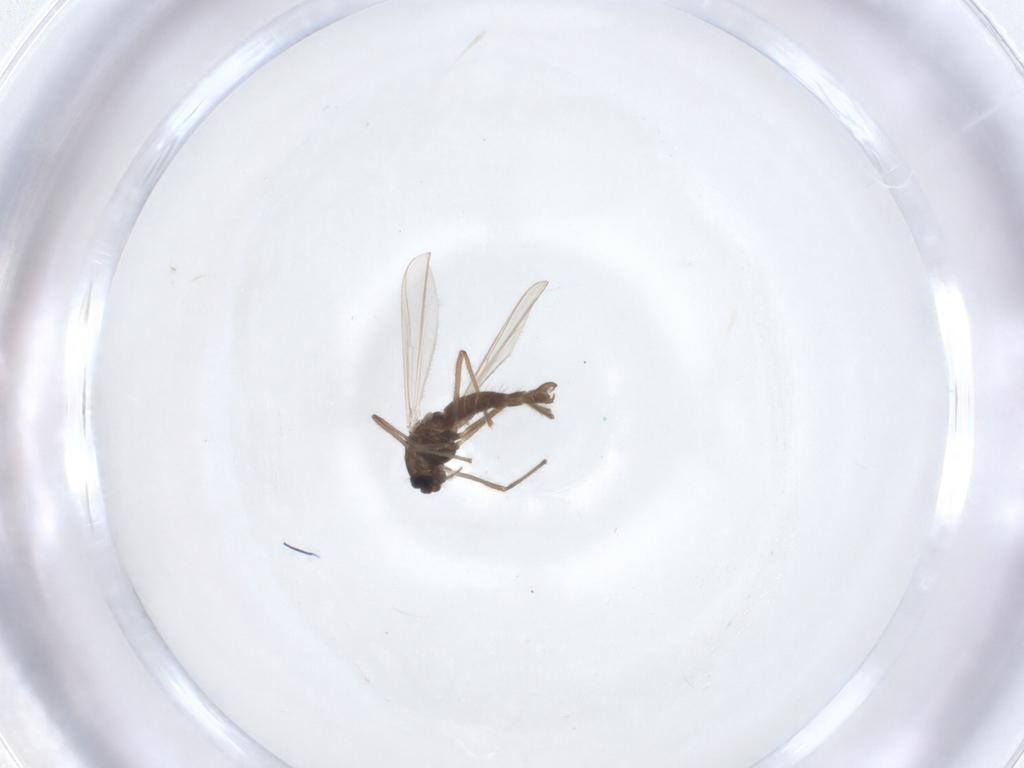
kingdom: Animalia
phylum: Arthropoda
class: Insecta
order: Diptera
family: Chironomidae
